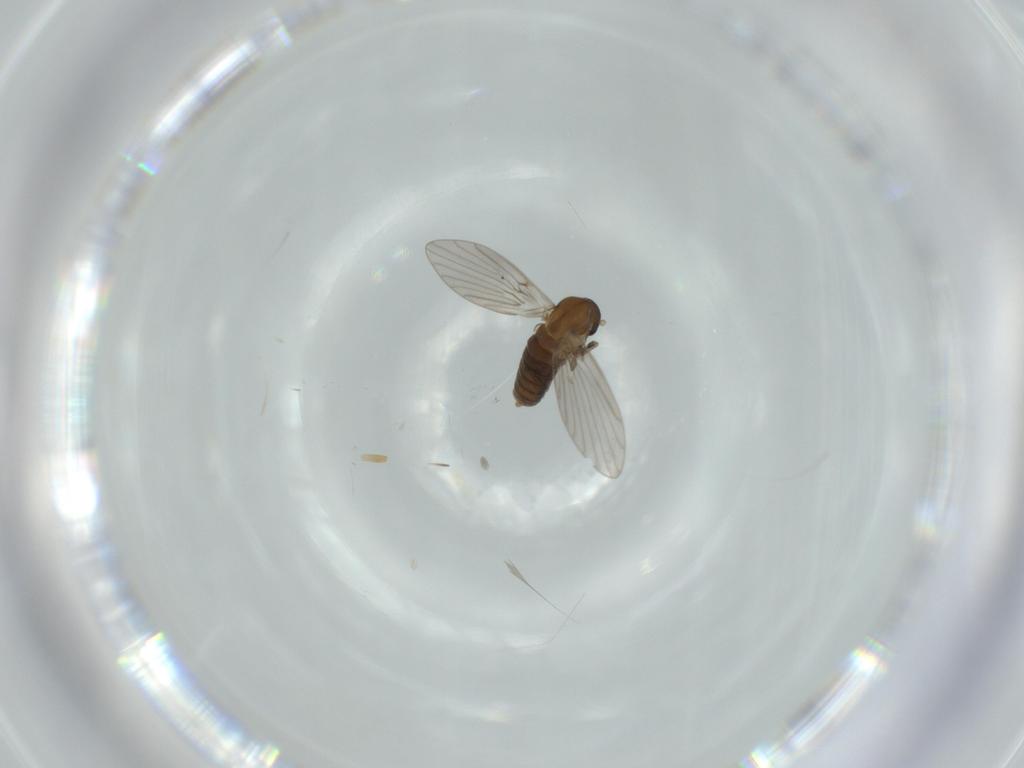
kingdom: Animalia
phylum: Arthropoda
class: Insecta
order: Diptera
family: Chironomidae
